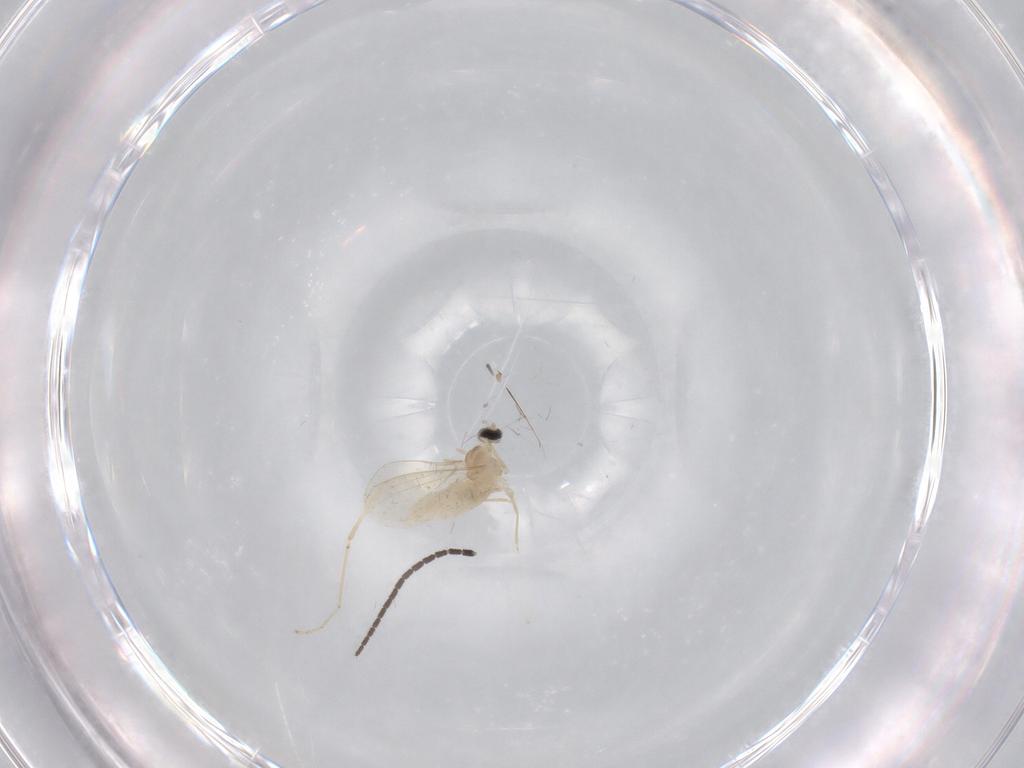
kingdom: Animalia
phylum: Arthropoda
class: Insecta
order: Diptera
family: Cecidomyiidae
